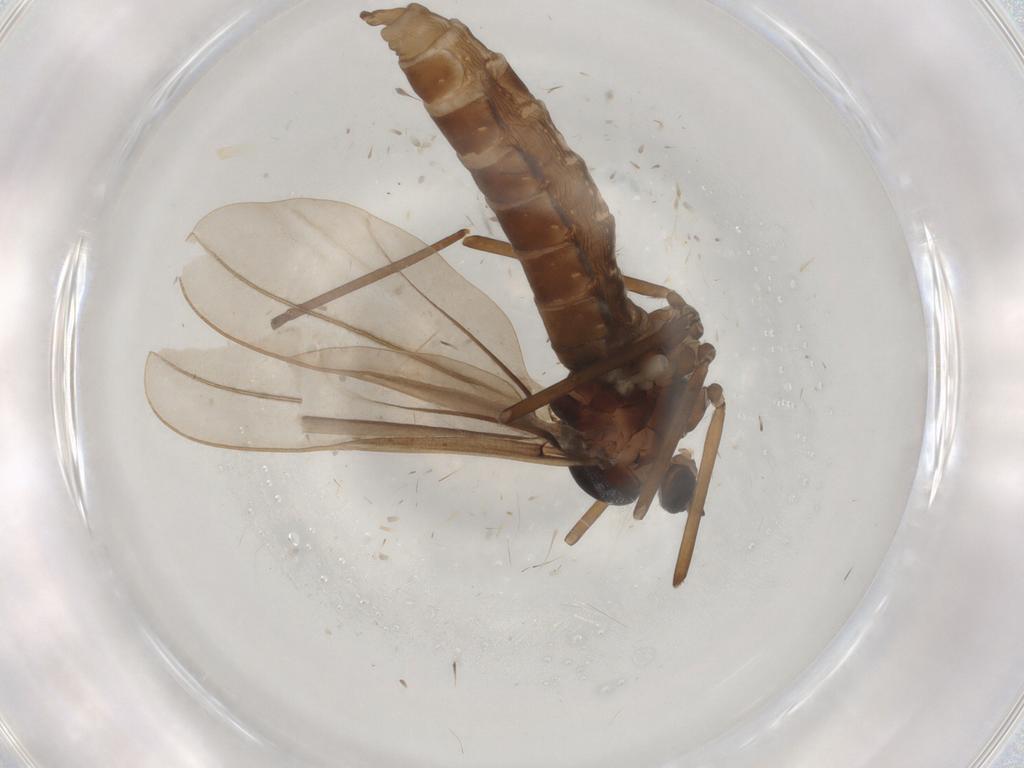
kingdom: Animalia
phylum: Arthropoda
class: Insecta
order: Diptera
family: Cecidomyiidae
